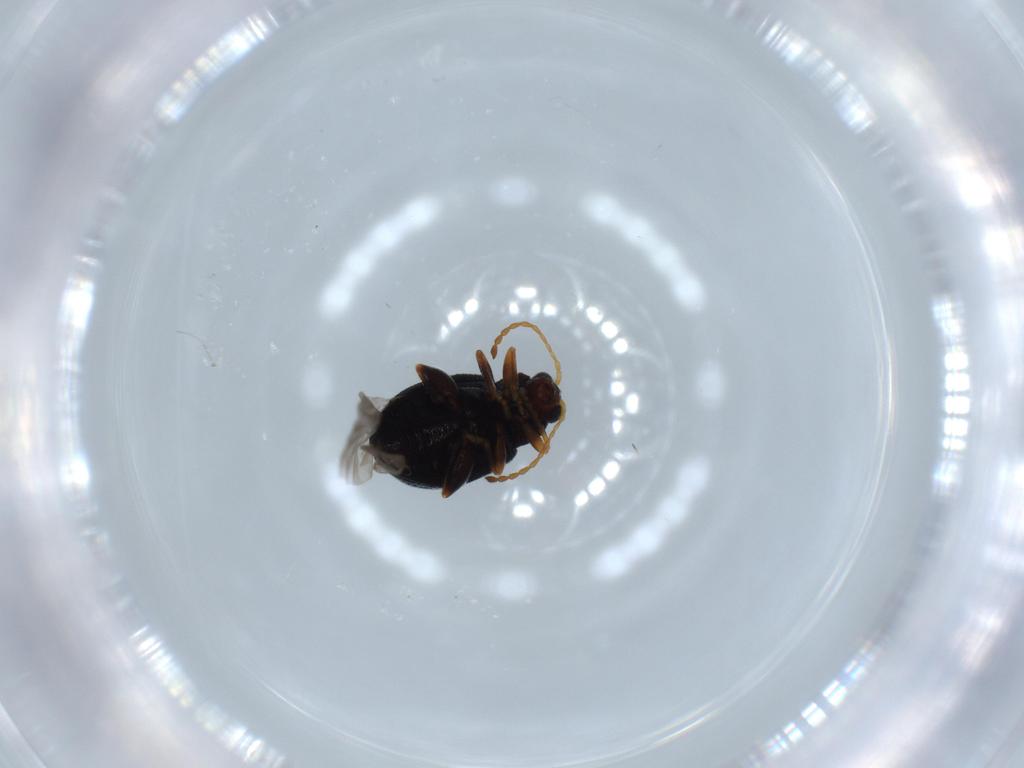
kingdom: Animalia
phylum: Arthropoda
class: Insecta
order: Coleoptera
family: Chrysomelidae
